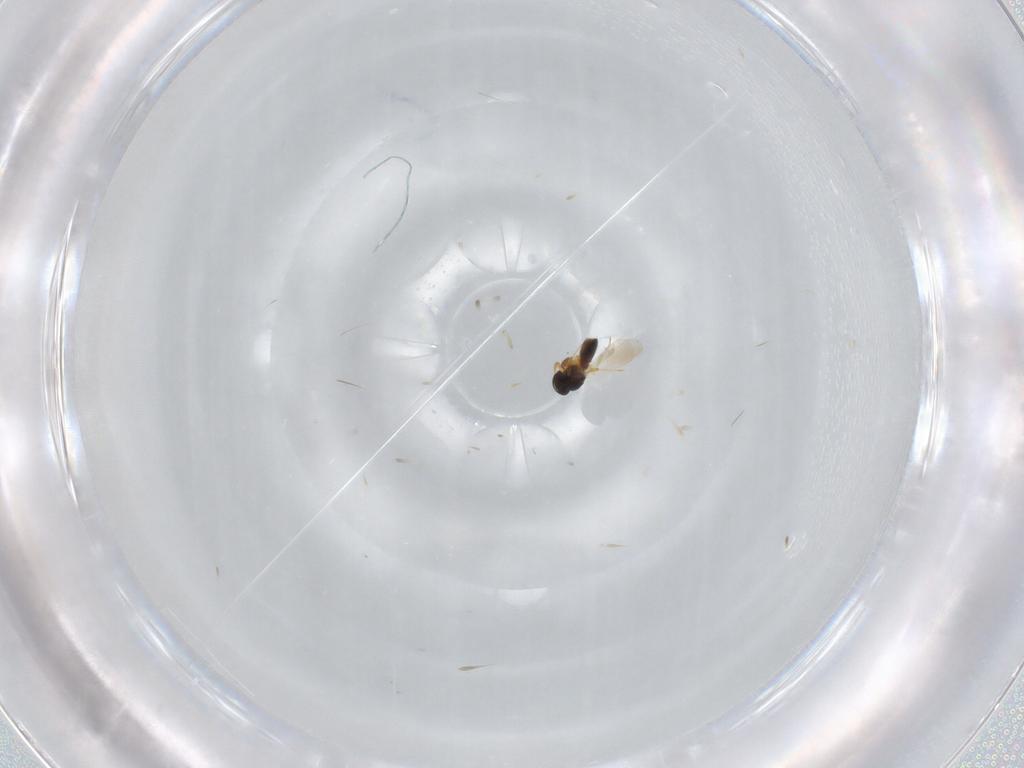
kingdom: Animalia
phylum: Arthropoda
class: Insecta
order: Hymenoptera
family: Platygastridae
